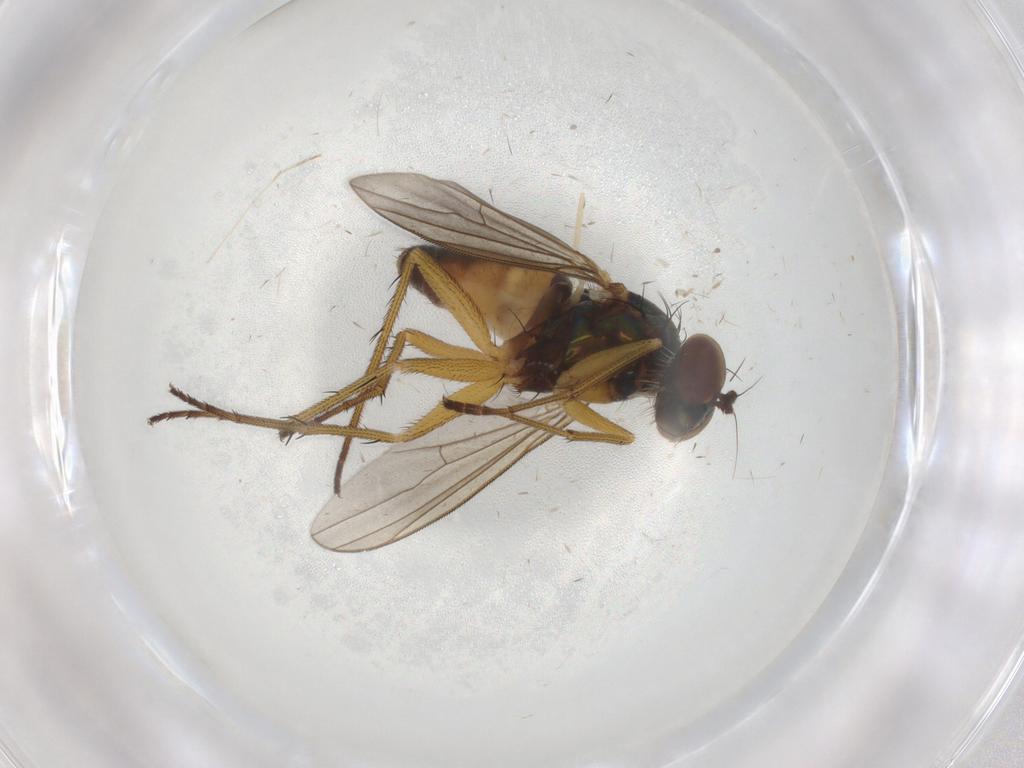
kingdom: Animalia
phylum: Arthropoda
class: Insecta
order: Diptera
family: Cecidomyiidae
